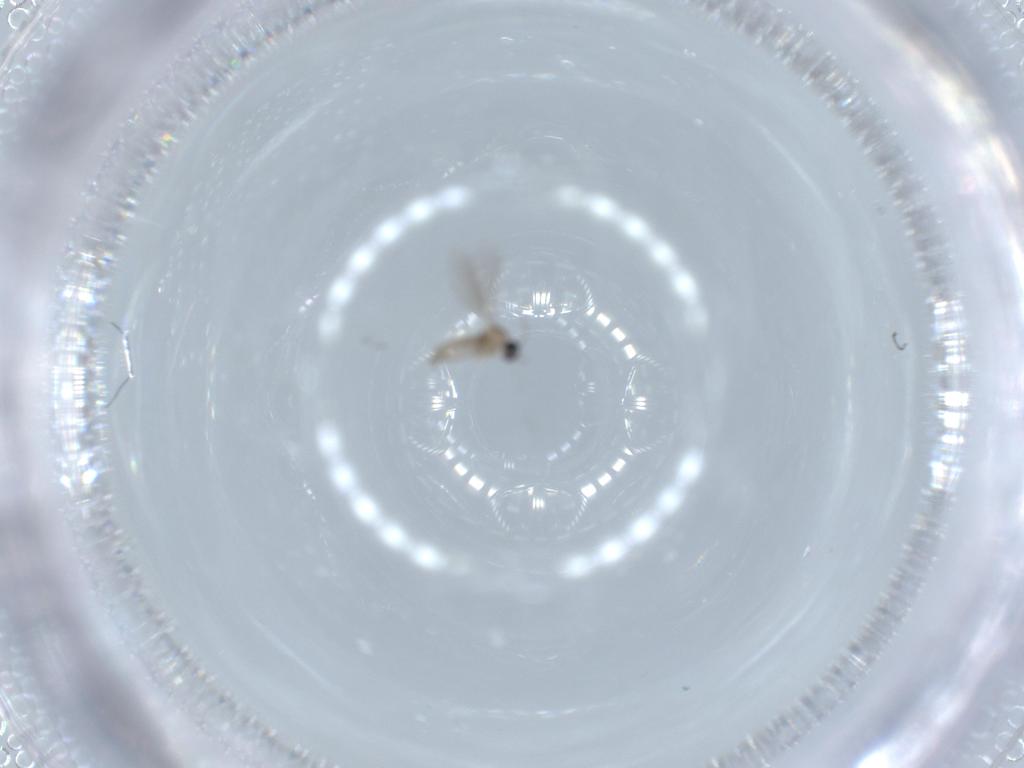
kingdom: Animalia
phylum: Arthropoda
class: Insecta
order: Diptera
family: Cecidomyiidae
